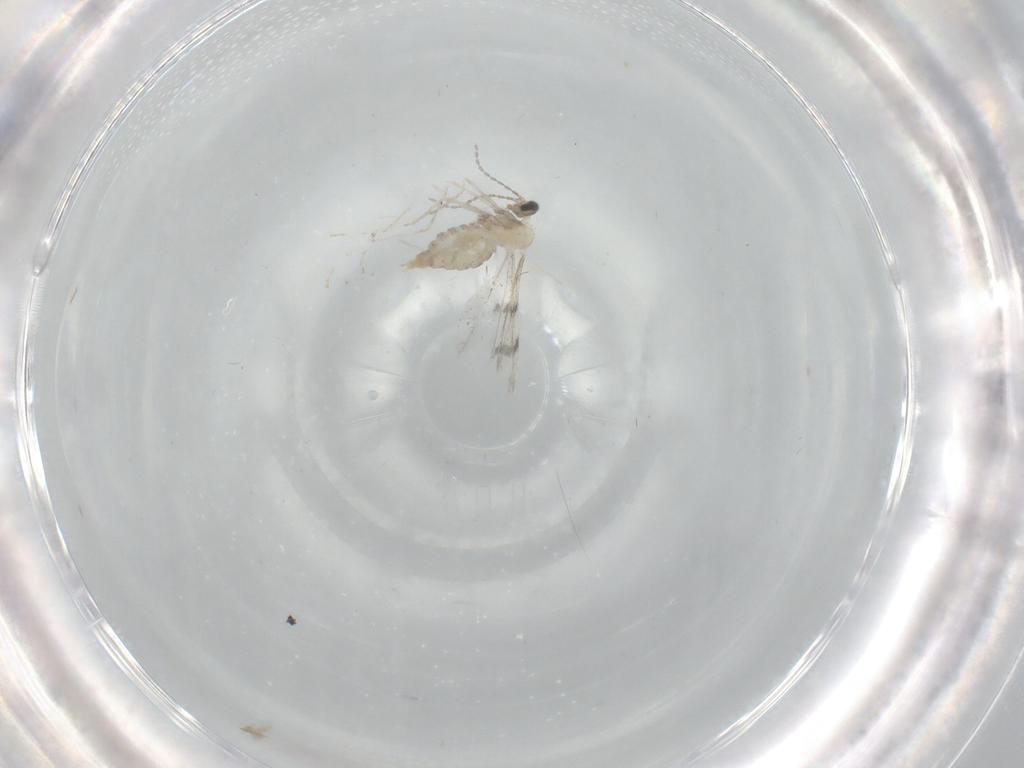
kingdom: Animalia
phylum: Arthropoda
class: Insecta
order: Diptera
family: Cecidomyiidae
